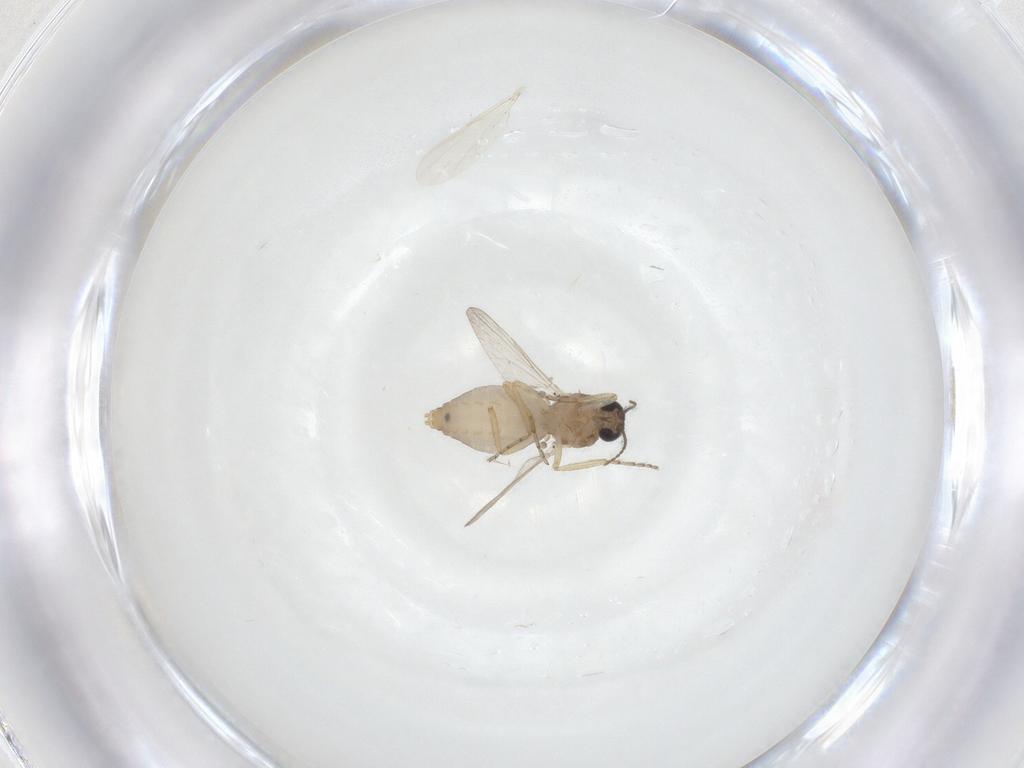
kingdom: Animalia
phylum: Arthropoda
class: Insecta
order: Diptera
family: Ceratopogonidae
